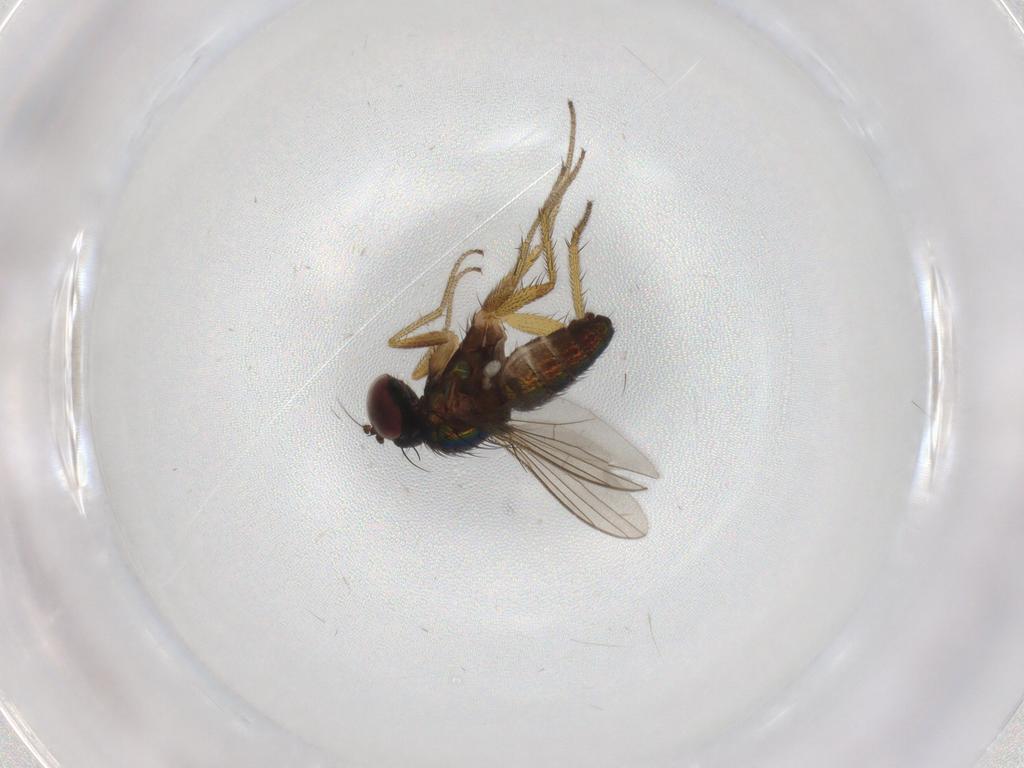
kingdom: Animalia
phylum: Arthropoda
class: Insecta
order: Diptera
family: Dolichopodidae
